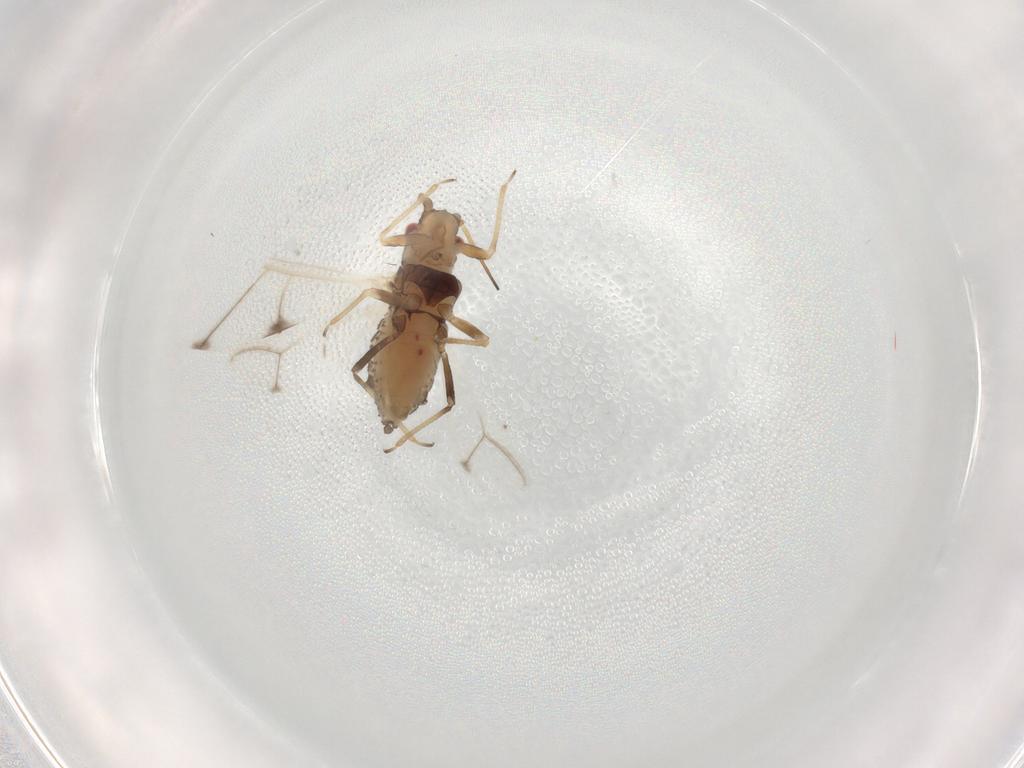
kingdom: Animalia
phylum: Arthropoda
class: Insecta
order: Hemiptera
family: Aphididae
